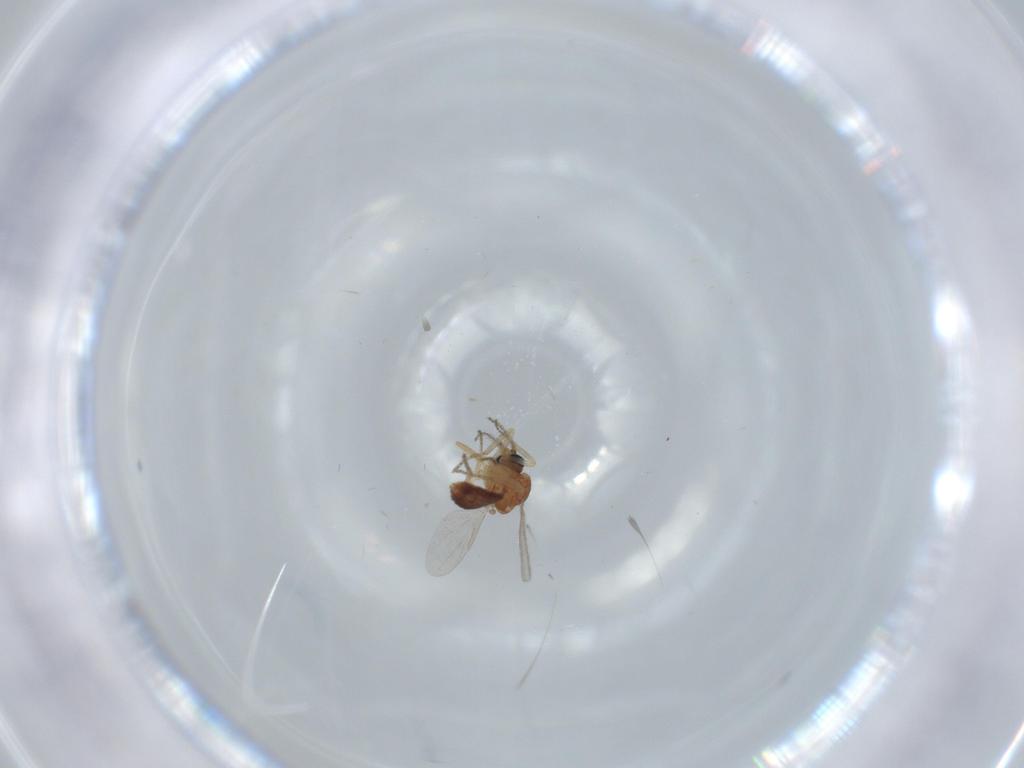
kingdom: Animalia
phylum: Arthropoda
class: Insecta
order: Diptera
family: Ceratopogonidae
